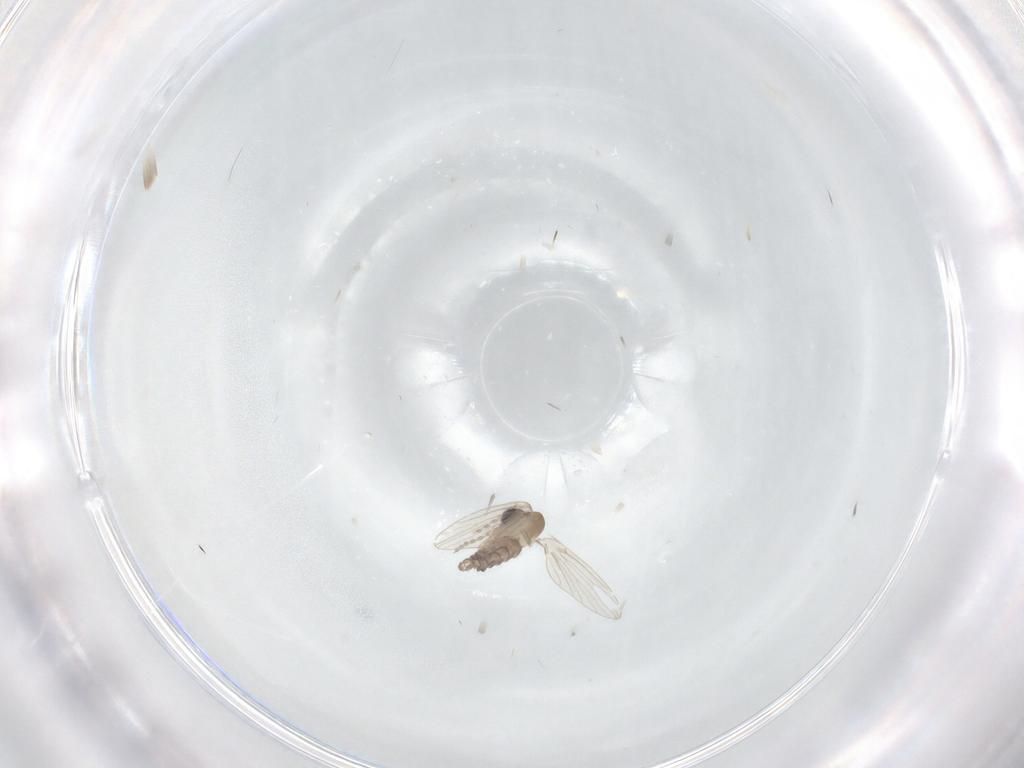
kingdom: Animalia
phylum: Arthropoda
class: Insecta
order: Diptera
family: Psychodidae
